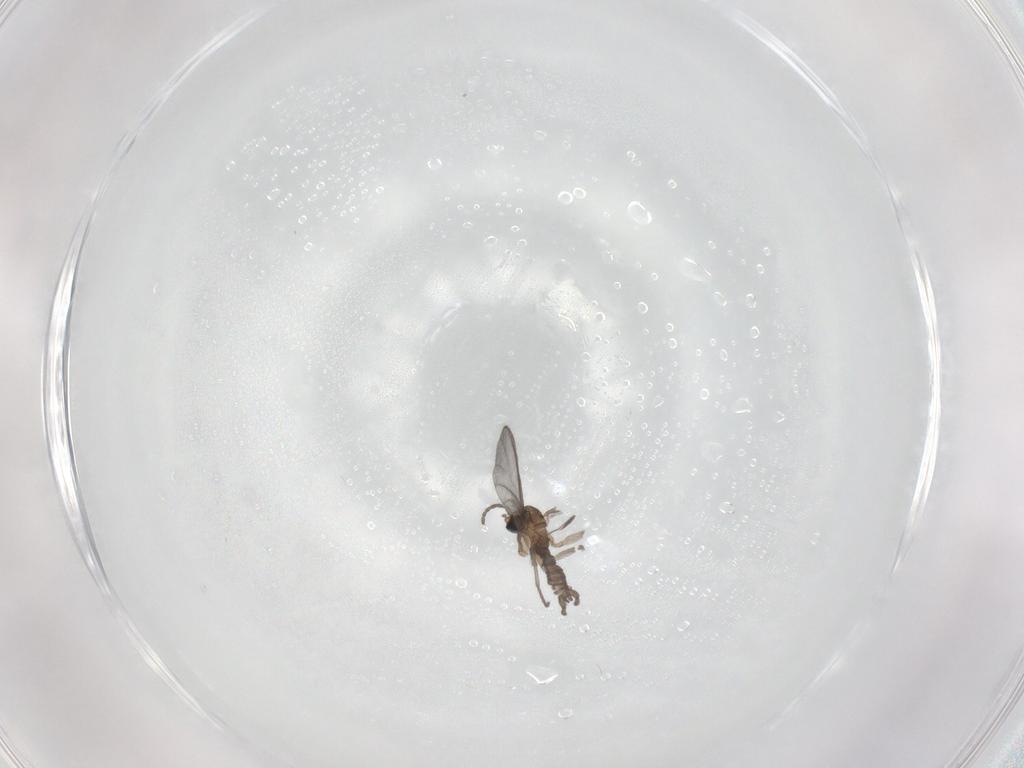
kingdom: Animalia
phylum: Arthropoda
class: Insecta
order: Diptera
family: Sciaridae
